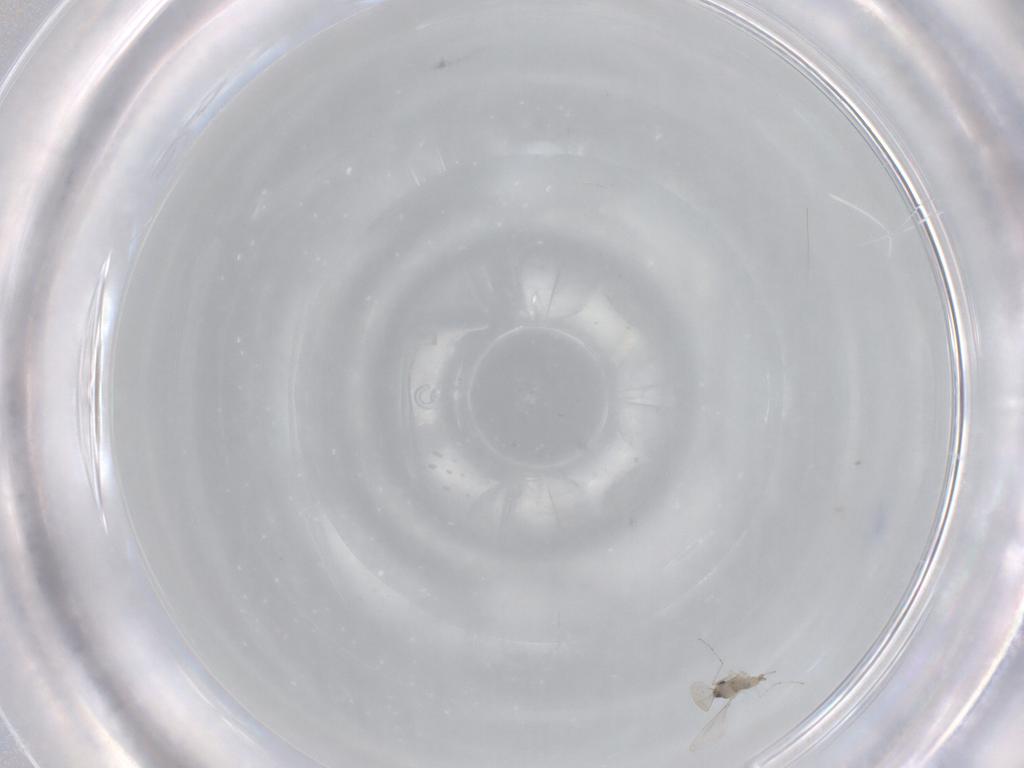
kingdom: Animalia
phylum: Arthropoda
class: Insecta
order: Diptera
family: Cecidomyiidae
